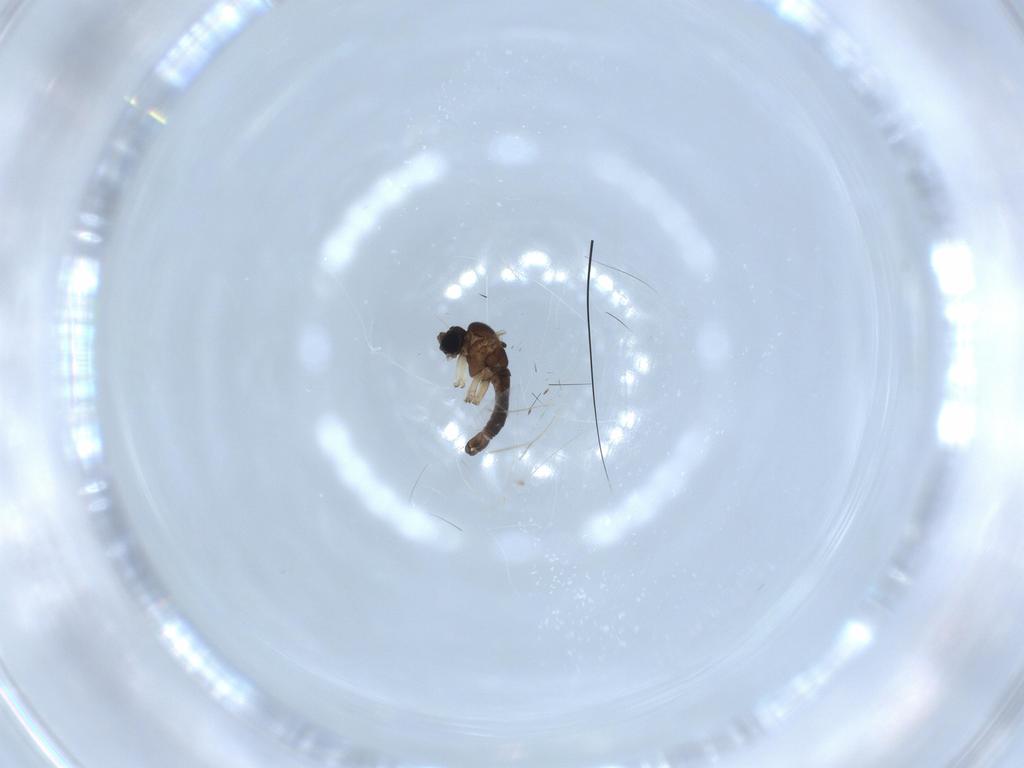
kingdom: Animalia
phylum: Arthropoda
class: Insecta
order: Diptera
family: Sciaridae
